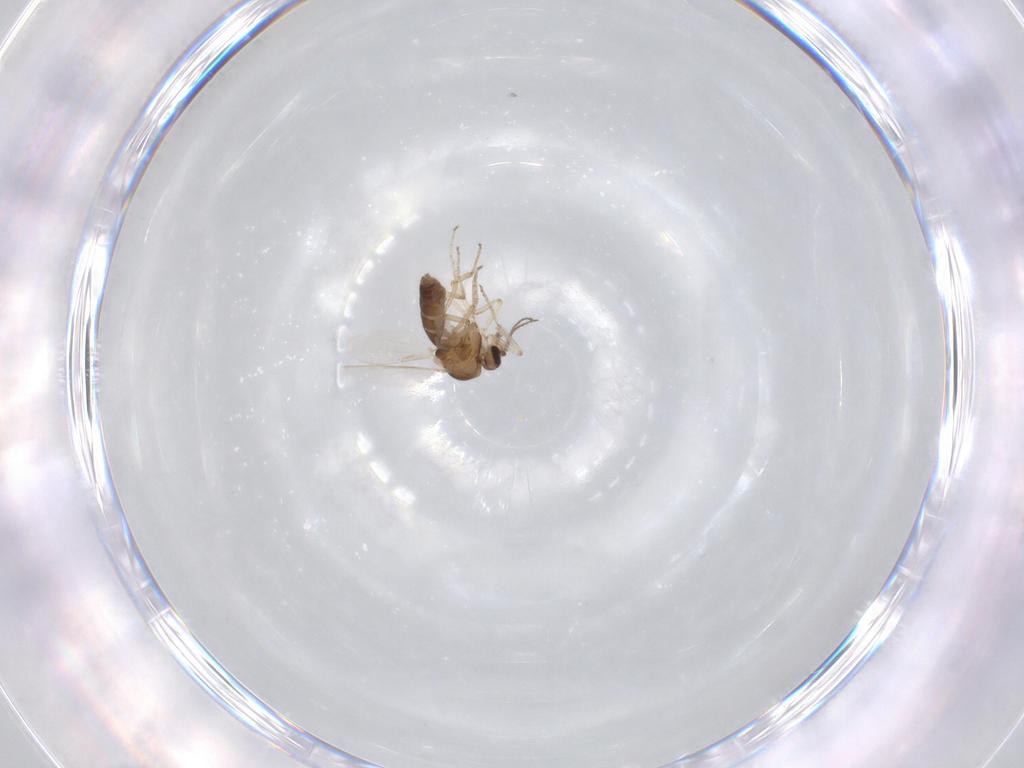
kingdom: Animalia
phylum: Arthropoda
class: Insecta
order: Diptera
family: Ceratopogonidae
